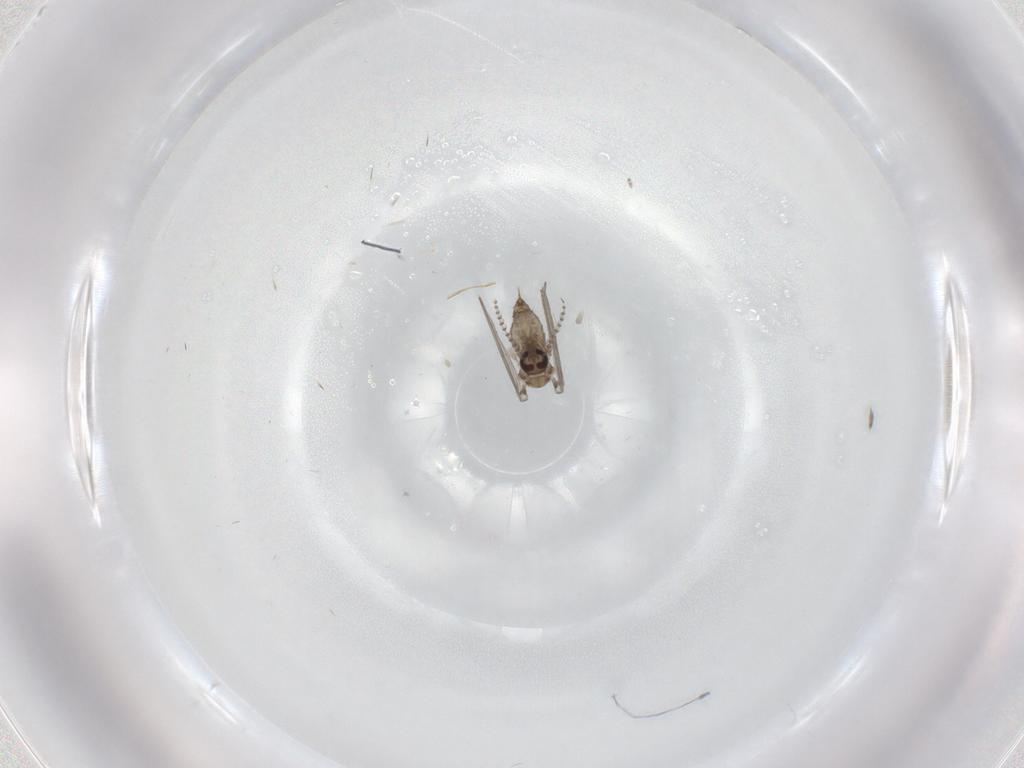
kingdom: Animalia
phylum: Arthropoda
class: Insecta
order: Diptera
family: Psychodidae
